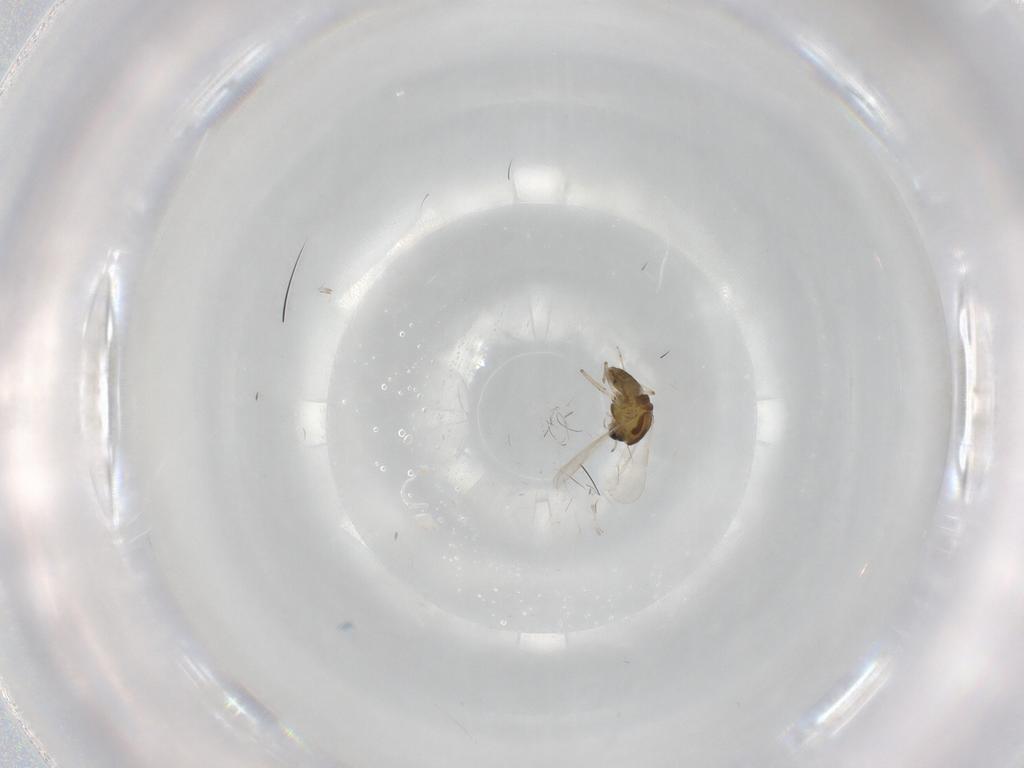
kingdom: Animalia
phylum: Arthropoda
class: Insecta
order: Diptera
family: Chironomidae
